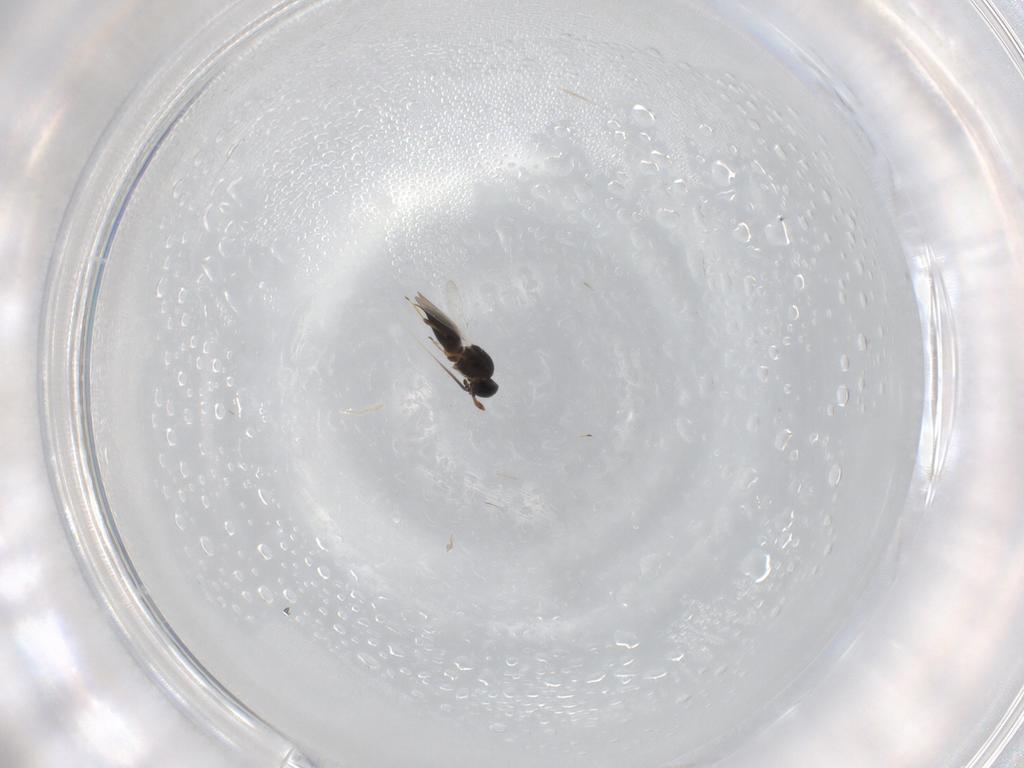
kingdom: Animalia
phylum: Arthropoda
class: Insecta
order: Hymenoptera
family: Platygastridae
